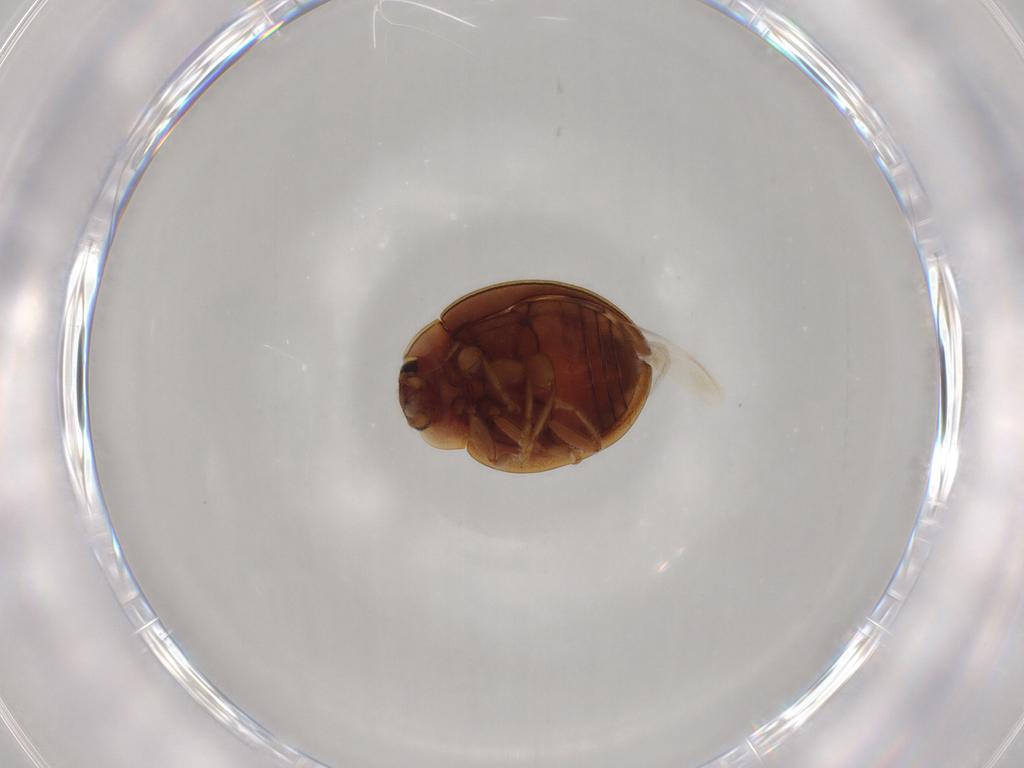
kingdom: Animalia
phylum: Arthropoda
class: Insecta
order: Coleoptera
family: Coccinellidae
